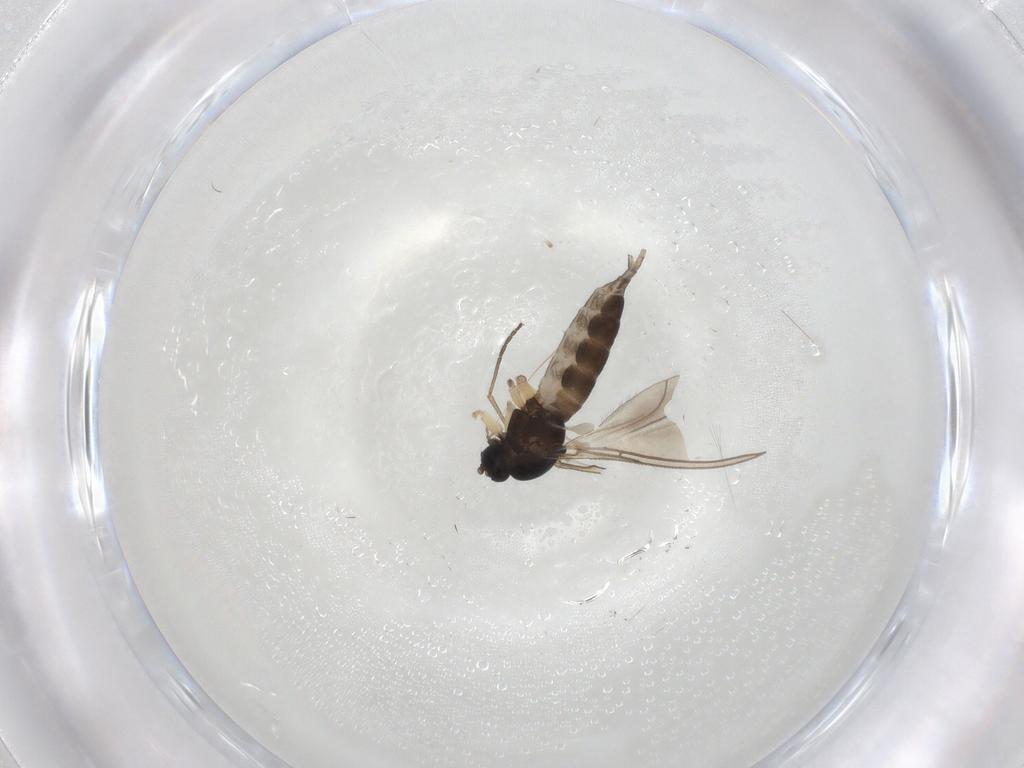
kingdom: Animalia
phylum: Arthropoda
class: Insecta
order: Diptera
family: Sciaridae
